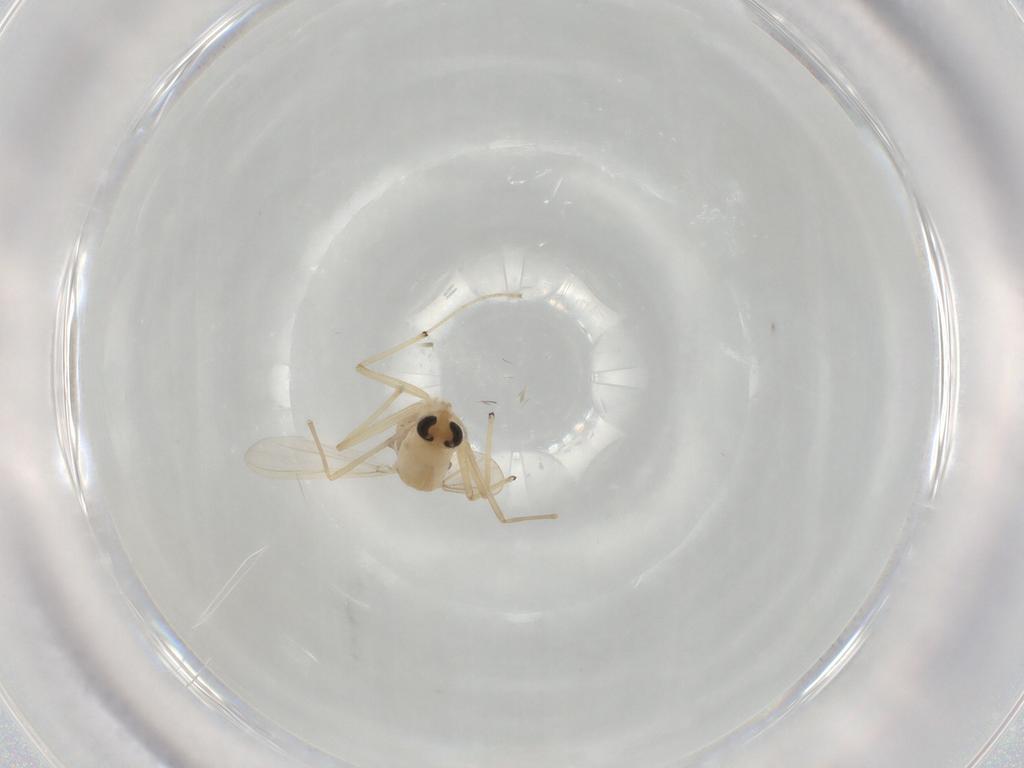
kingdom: Animalia
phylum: Arthropoda
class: Insecta
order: Diptera
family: Chironomidae
